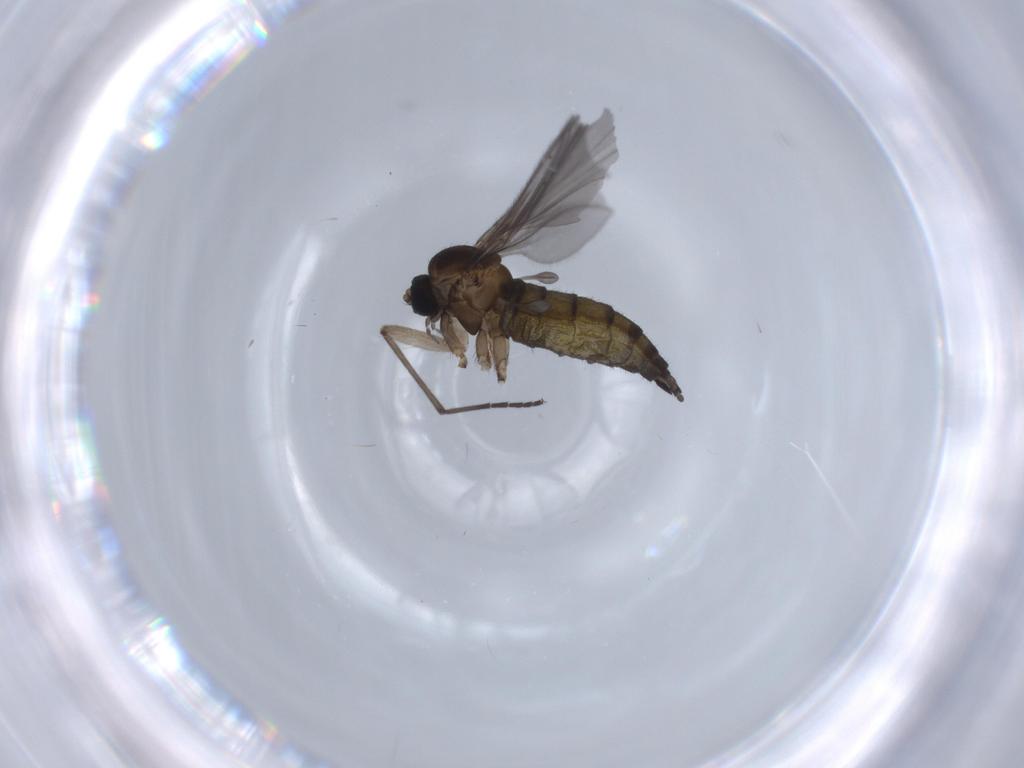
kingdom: Animalia
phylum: Arthropoda
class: Insecta
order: Diptera
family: Sciaridae
